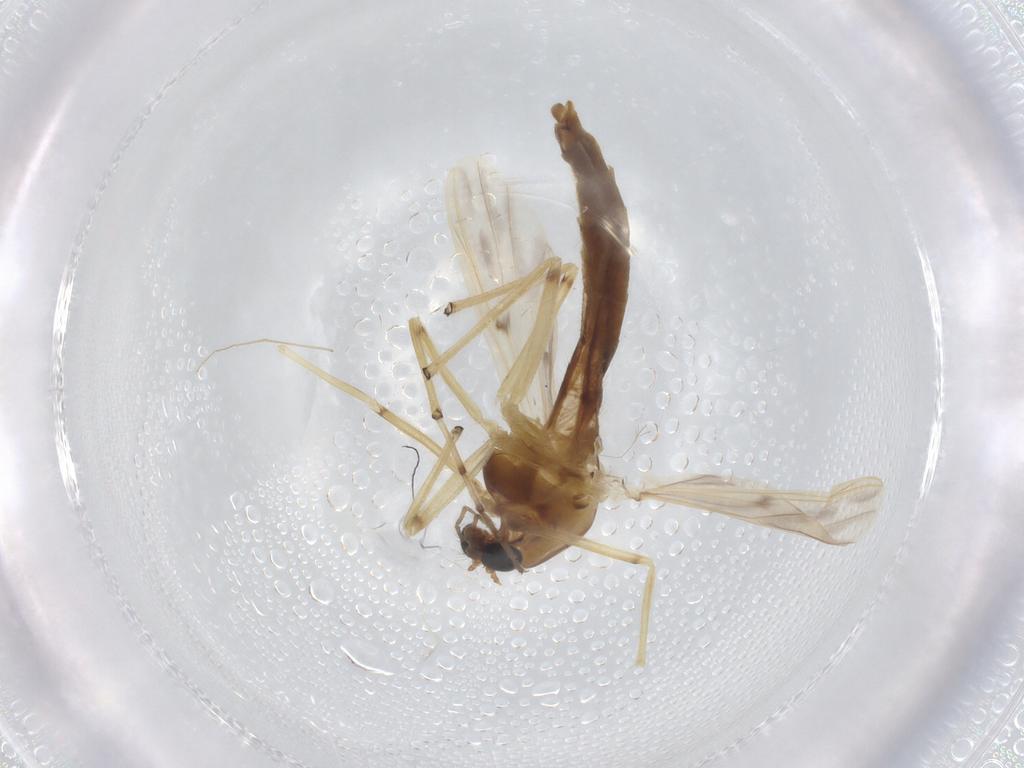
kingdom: Animalia
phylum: Arthropoda
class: Insecta
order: Diptera
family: Chironomidae
